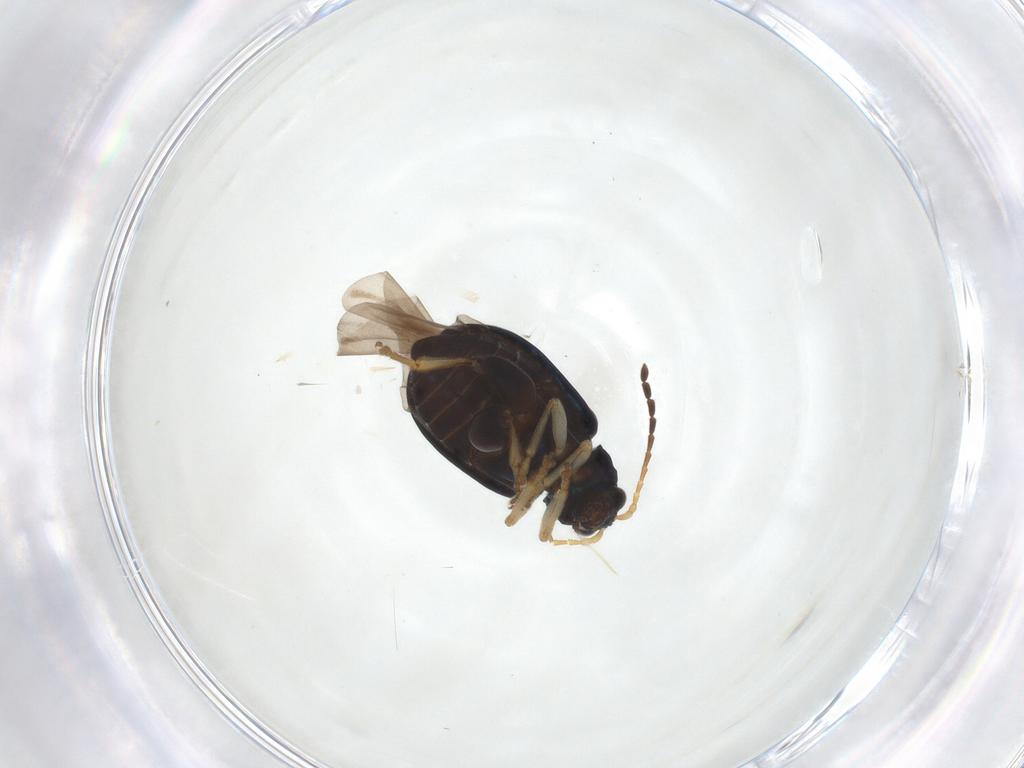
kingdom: Animalia
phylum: Arthropoda
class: Insecta
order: Coleoptera
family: Chrysomelidae
